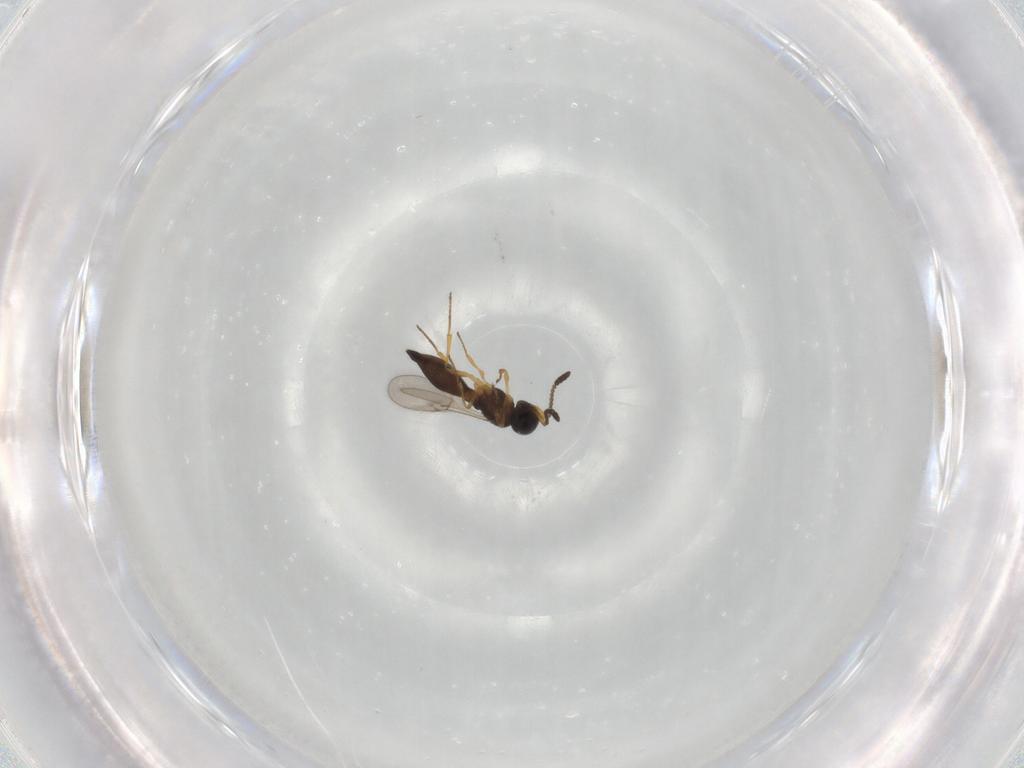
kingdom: Animalia
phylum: Arthropoda
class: Insecta
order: Hymenoptera
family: Scelionidae
